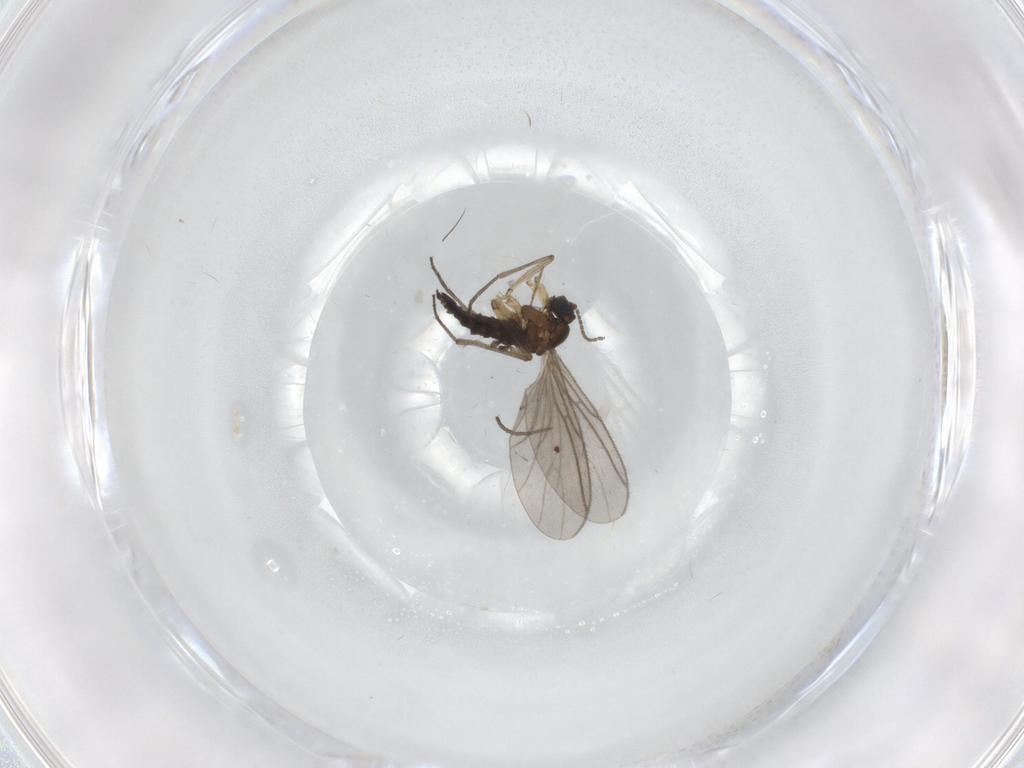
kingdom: Animalia
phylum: Arthropoda
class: Insecta
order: Diptera
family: Sciaridae
